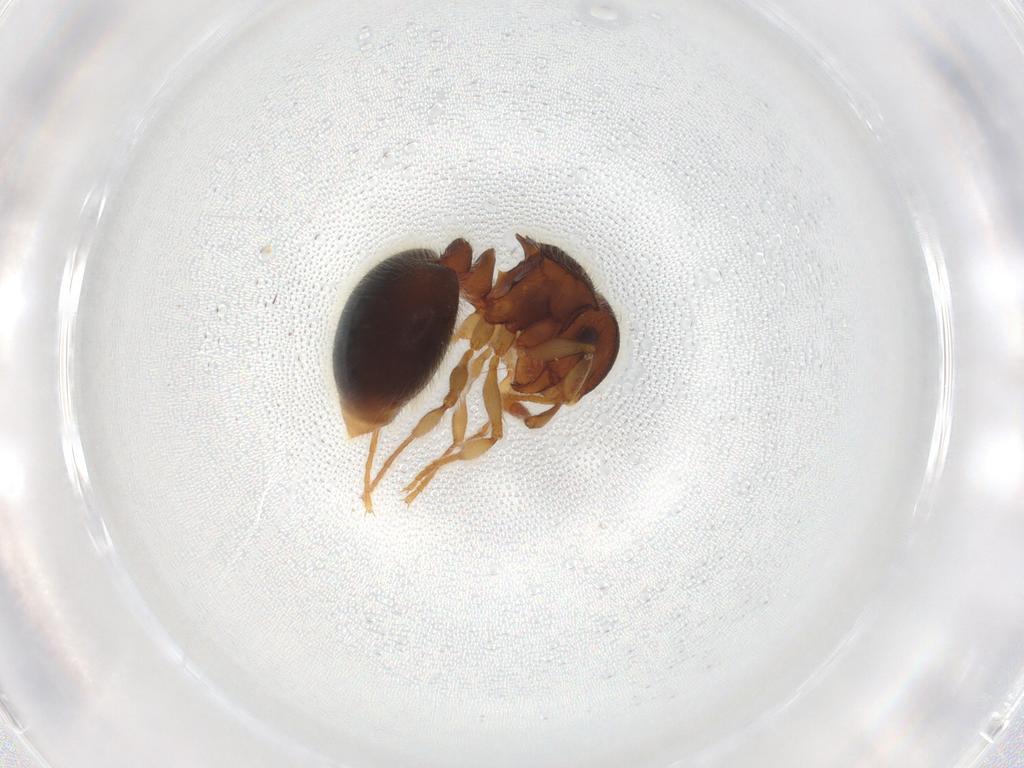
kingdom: Animalia
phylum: Arthropoda
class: Insecta
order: Hymenoptera
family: Formicidae
